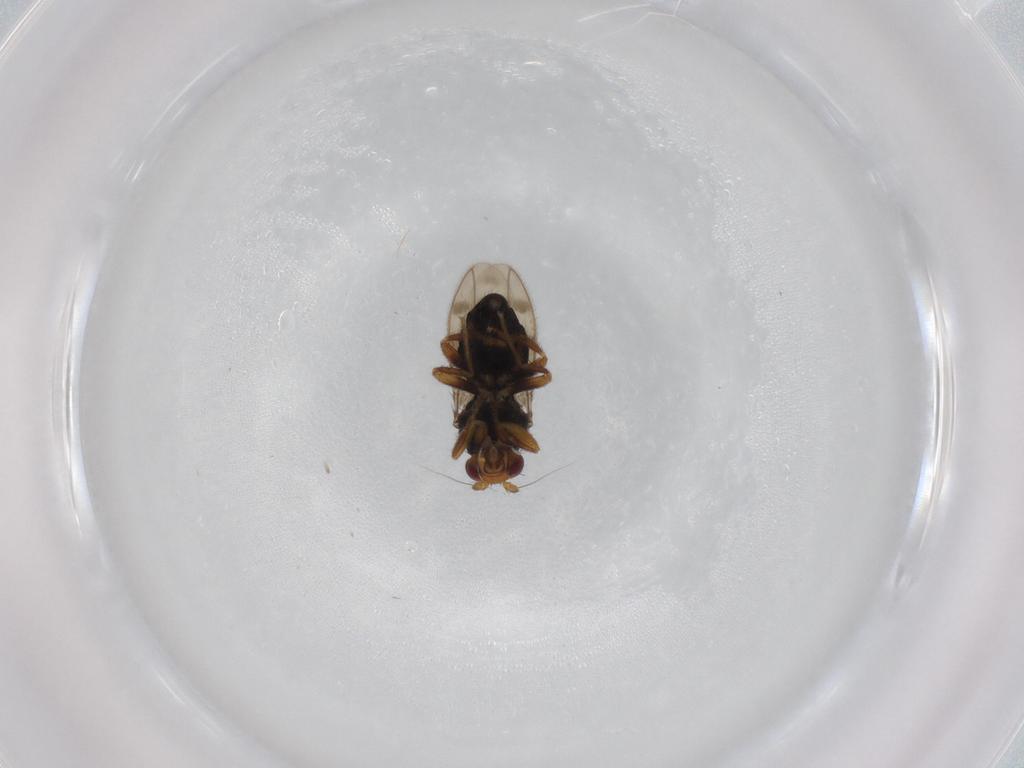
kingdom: Animalia
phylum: Arthropoda
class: Insecta
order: Diptera
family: Sphaeroceridae
